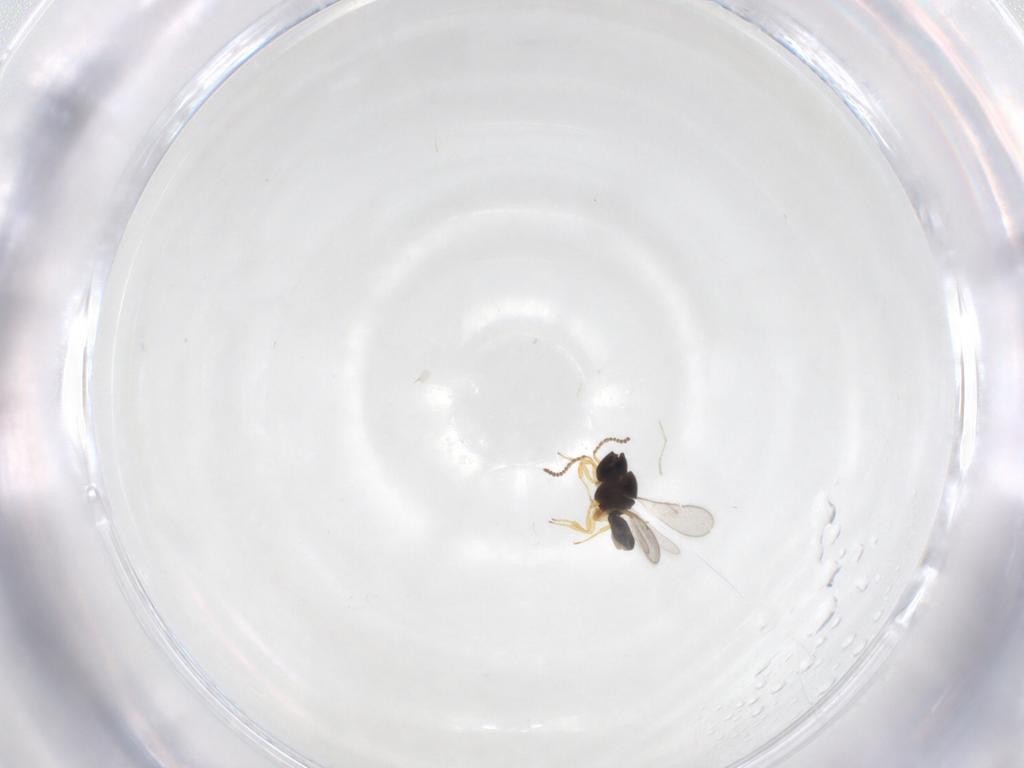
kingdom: Animalia
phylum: Arthropoda
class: Insecta
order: Hymenoptera
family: Scelionidae
